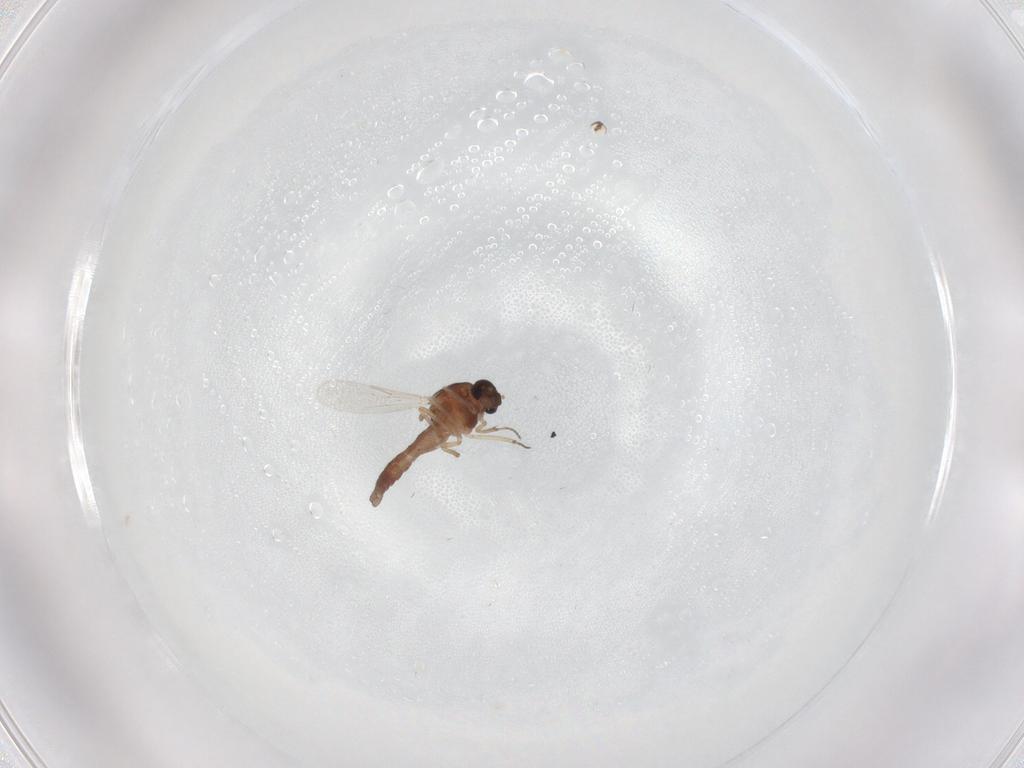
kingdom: Animalia
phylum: Arthropoda
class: Insecta
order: Diptera
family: Ceratopogonidae
